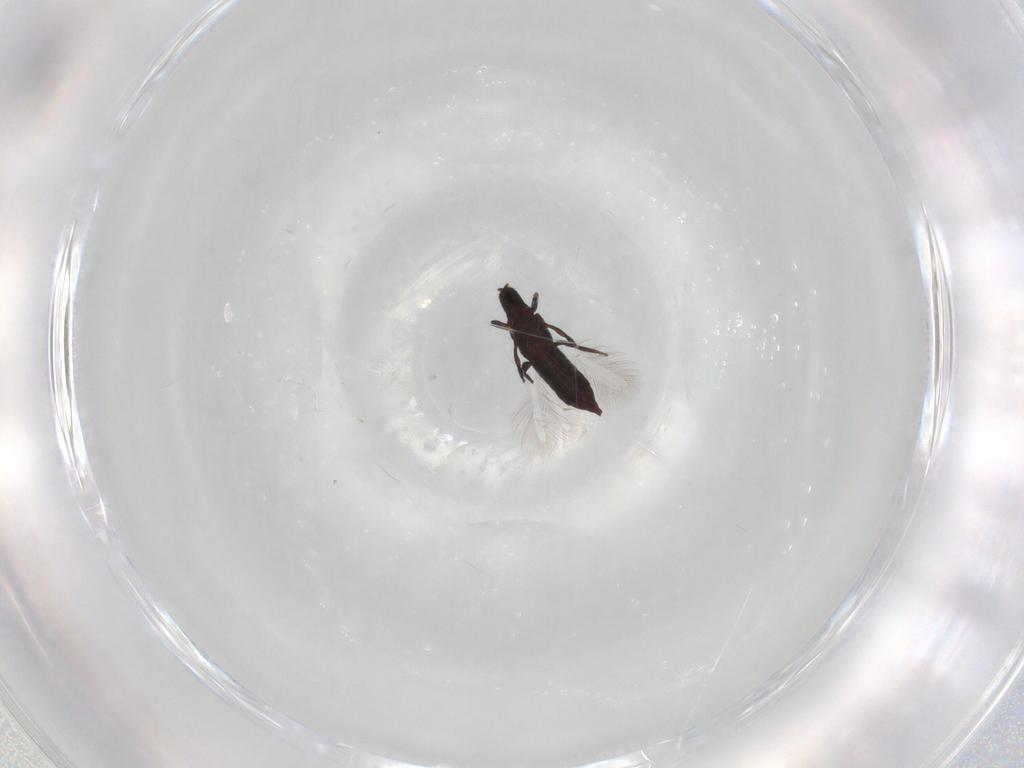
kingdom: Animalia
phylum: Arthropoda
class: Insecta
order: Thysanoptera
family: Phlaeothripidae
